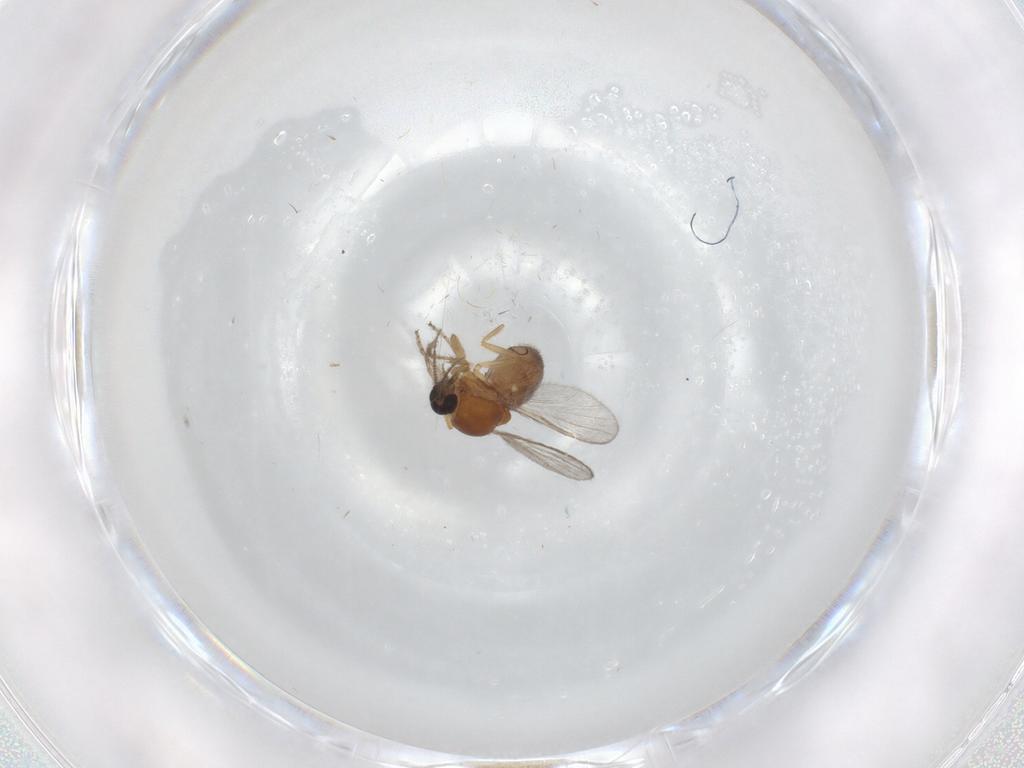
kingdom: Animalia
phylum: Arthropoda
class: Insecta
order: Diptera
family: Ceratopogonidae
